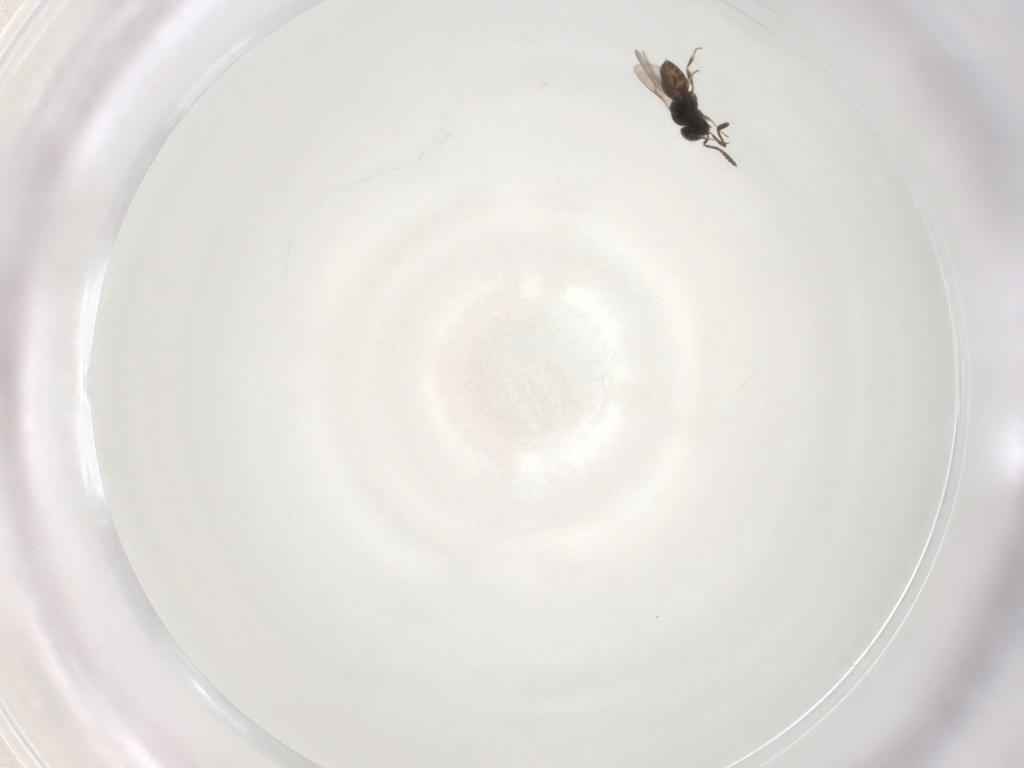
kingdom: Animalia
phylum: Arthropoda
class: Insecta
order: Hymenoptera
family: Scelionidae
